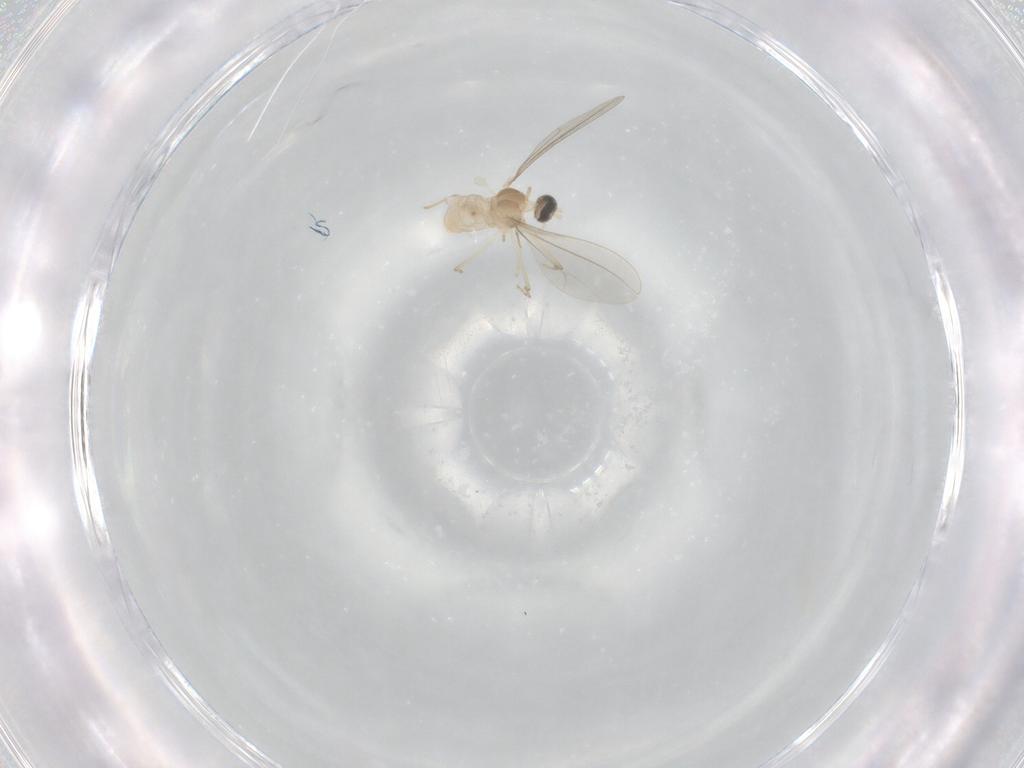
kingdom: Animalia
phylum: Arthropoda
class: Insecta
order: Diptera
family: Cecidomyiidae
